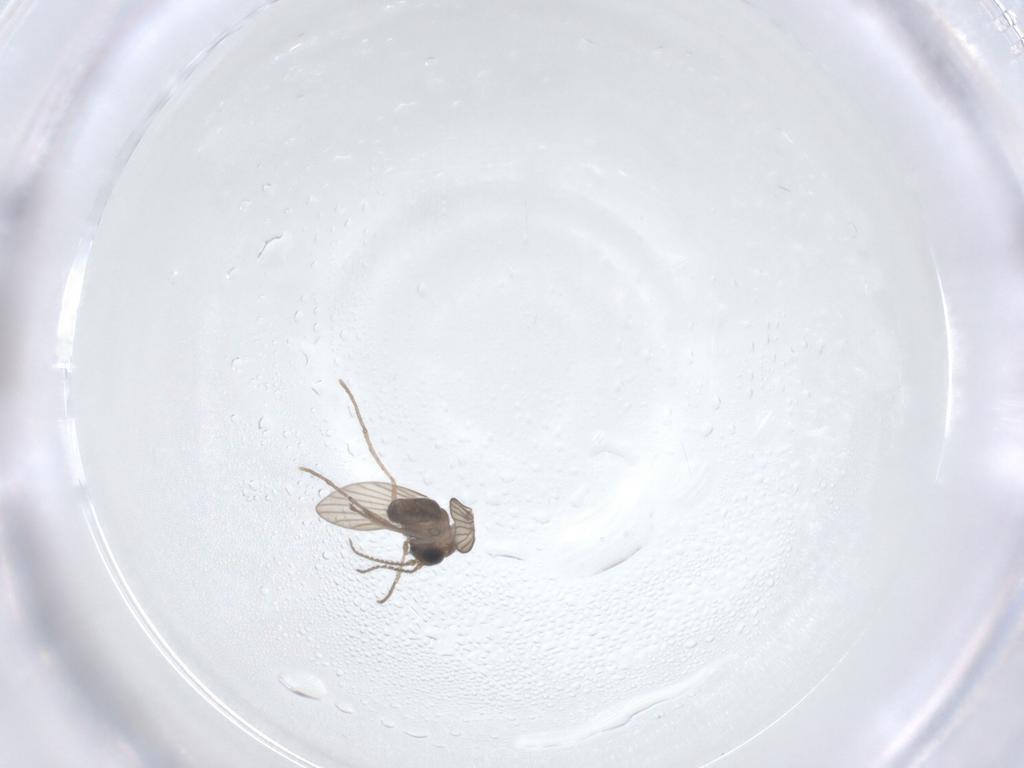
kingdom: Animalia
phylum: Arthropoda
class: Insecta
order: Diptera
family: Psychodidae
